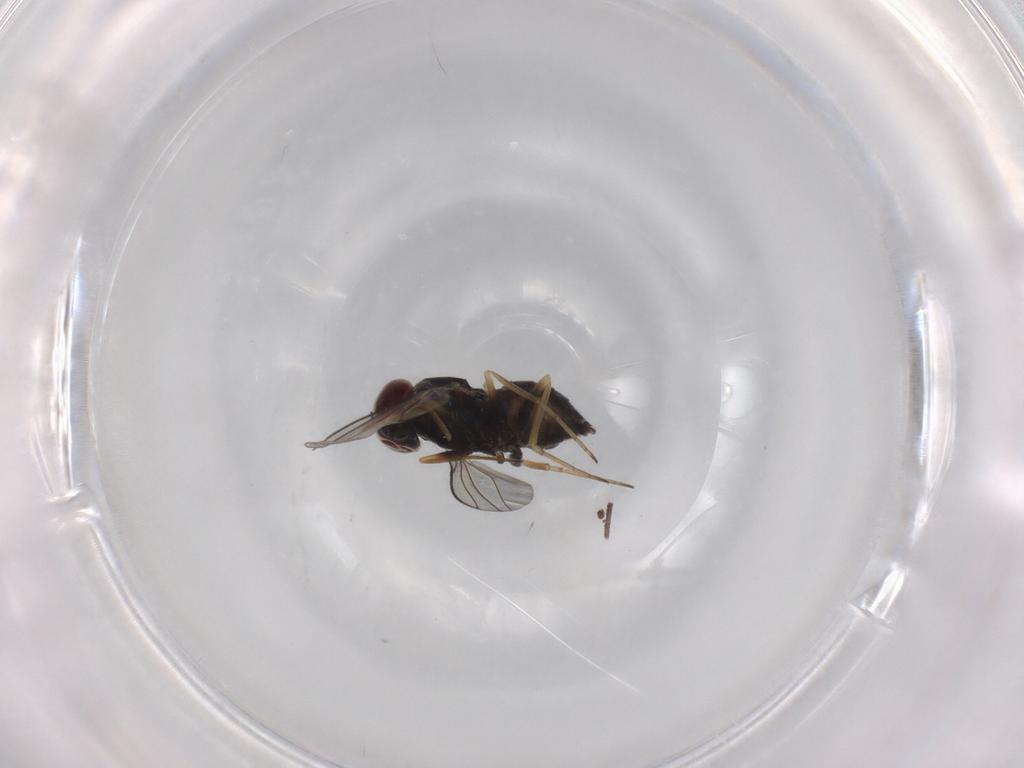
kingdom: Animalia
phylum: Arthropoda
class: Insecta
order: Diptera
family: Dolichopodidae
